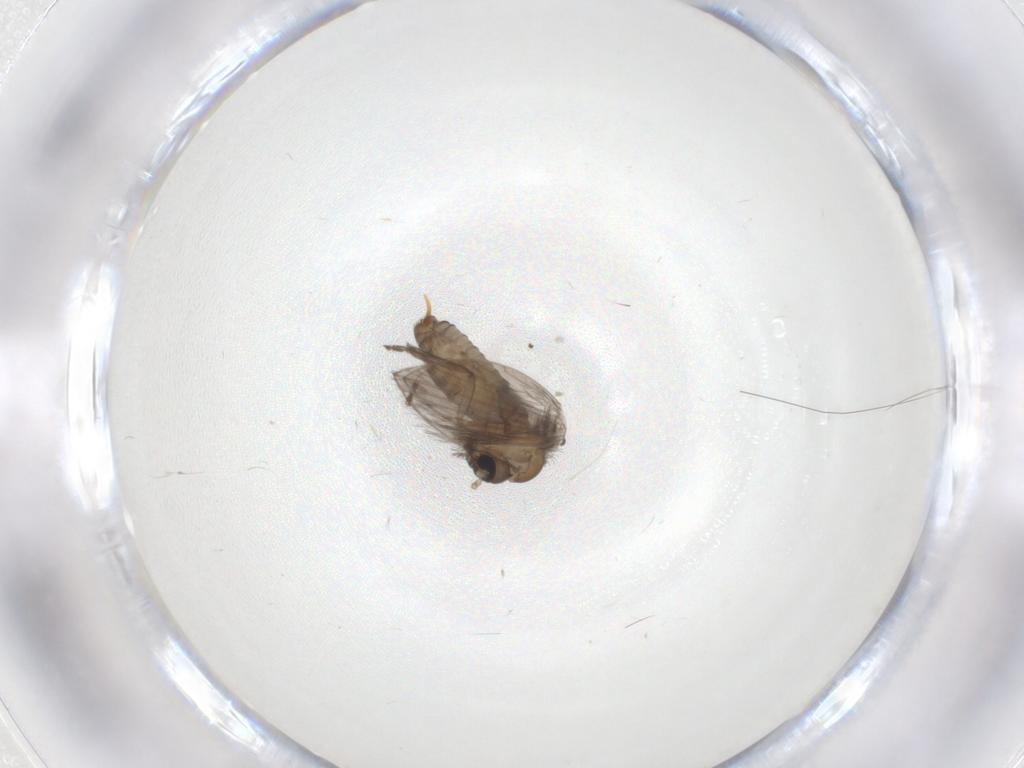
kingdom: Animalia
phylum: Arthropoda
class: Insecta
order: Diptera
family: Psychodidae
